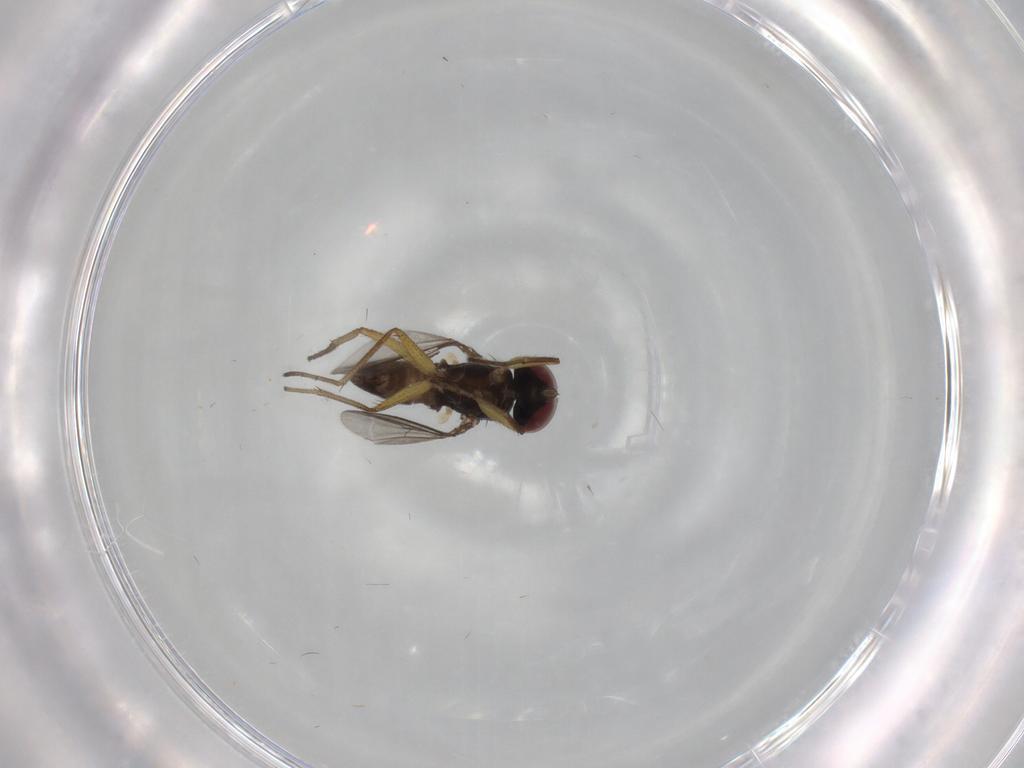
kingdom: Animalia
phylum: Arthropoda
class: Insecta
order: Diptera
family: Dolichopodidae
